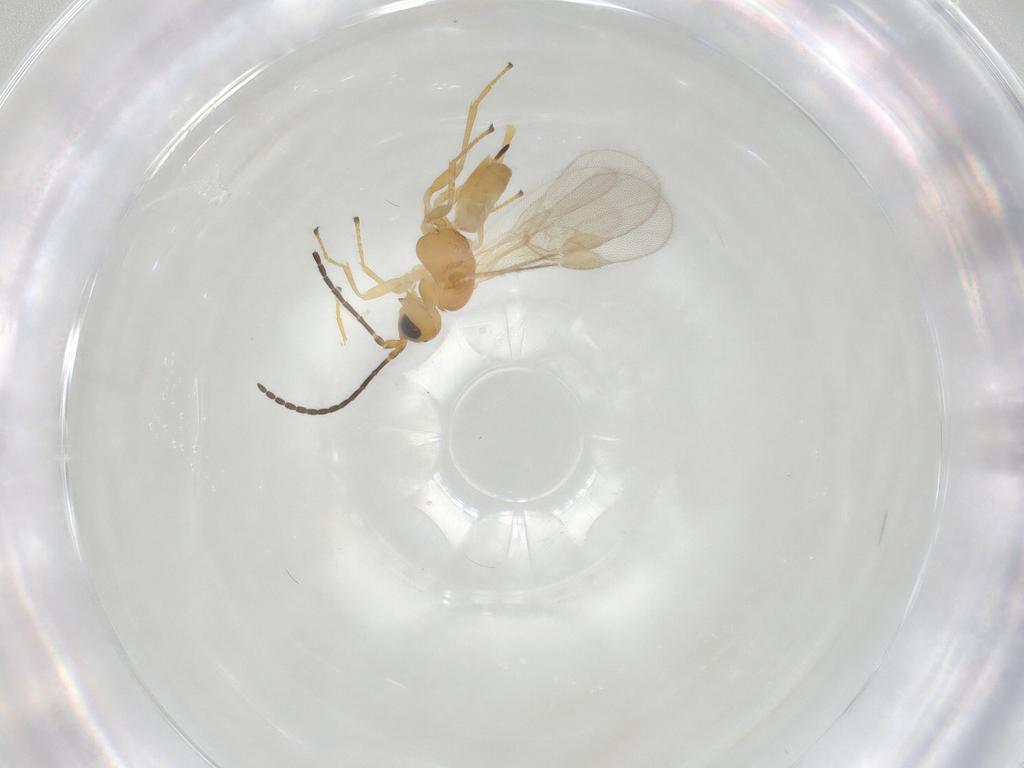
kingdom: Animalia
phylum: Arthropoda
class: Insecta
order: Hymenoptera
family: Braconidae
